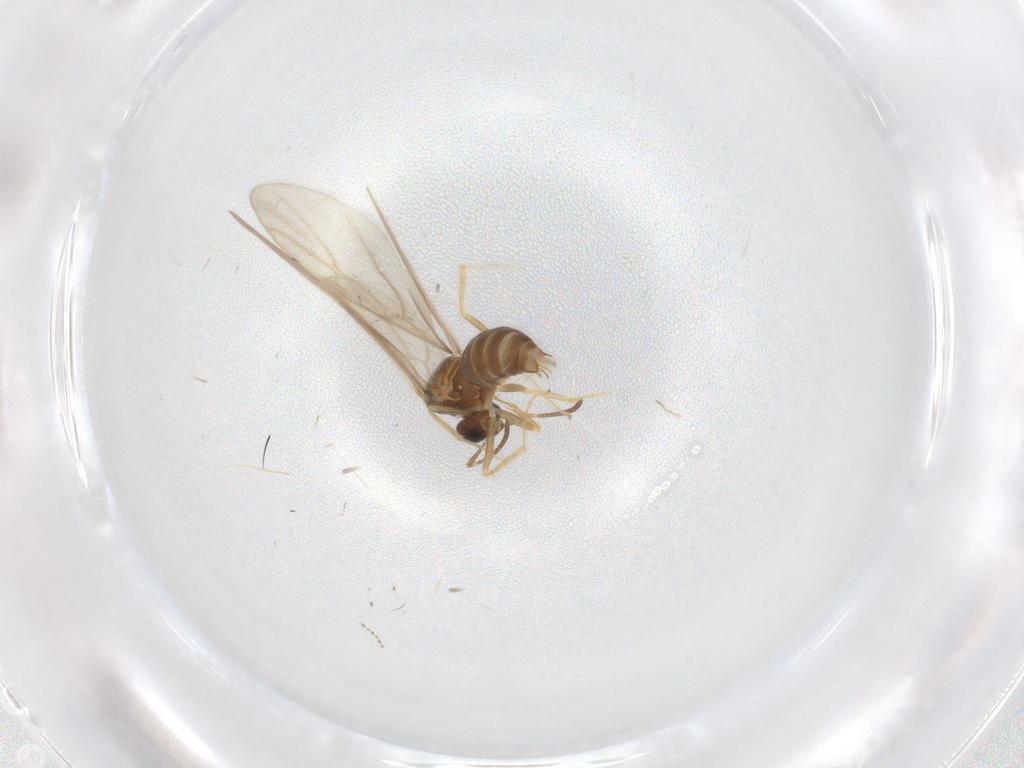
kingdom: Animalia
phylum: Arthropoda
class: Insecta
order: Hymenoptera
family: Formicidae
